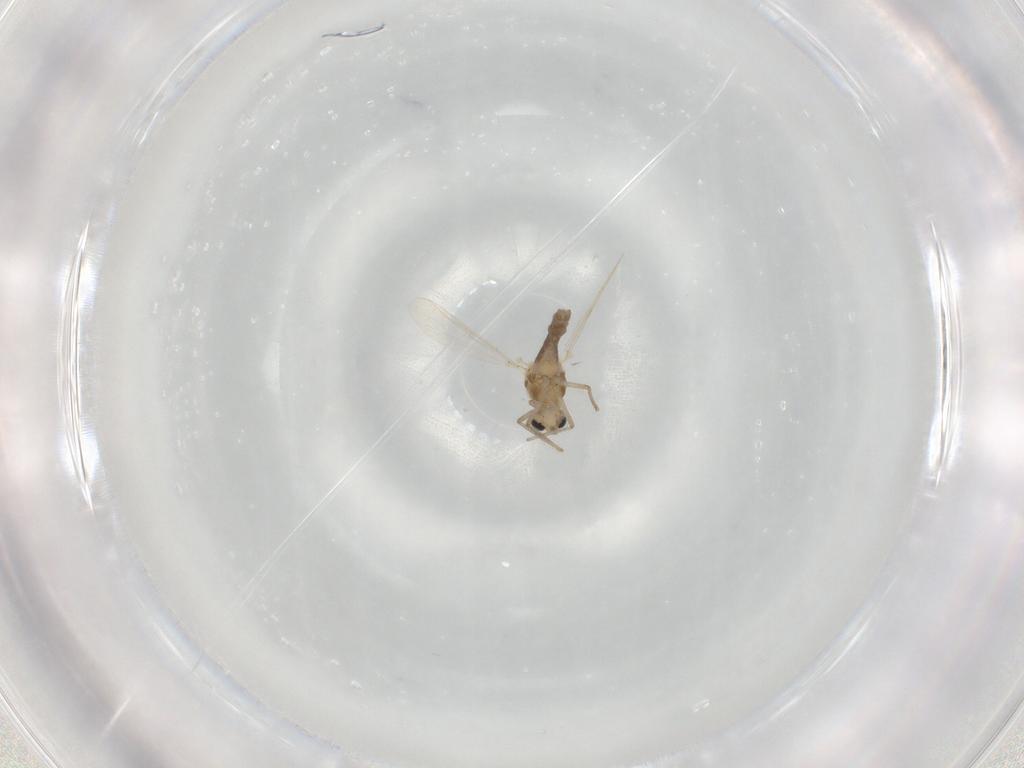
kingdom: Animalia
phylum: Arthropoda
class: Insecta
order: Diptera
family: Chironomidae
